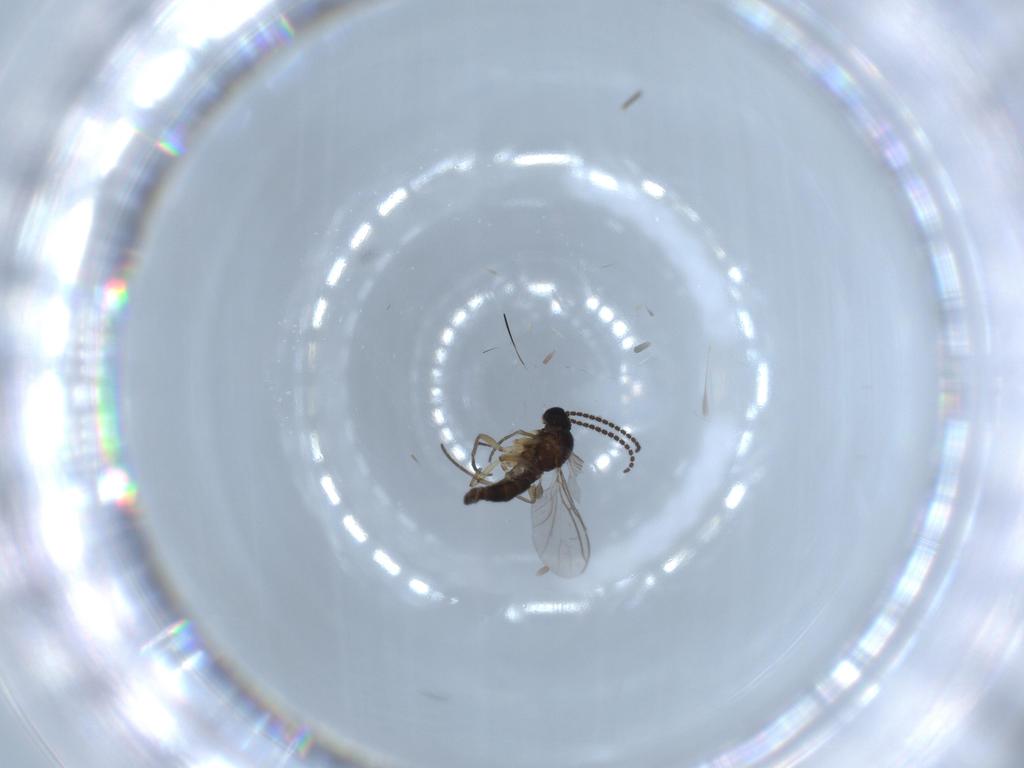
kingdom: Animalia
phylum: Arthropoda
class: Insecta
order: Diptera
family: Sciaridae
